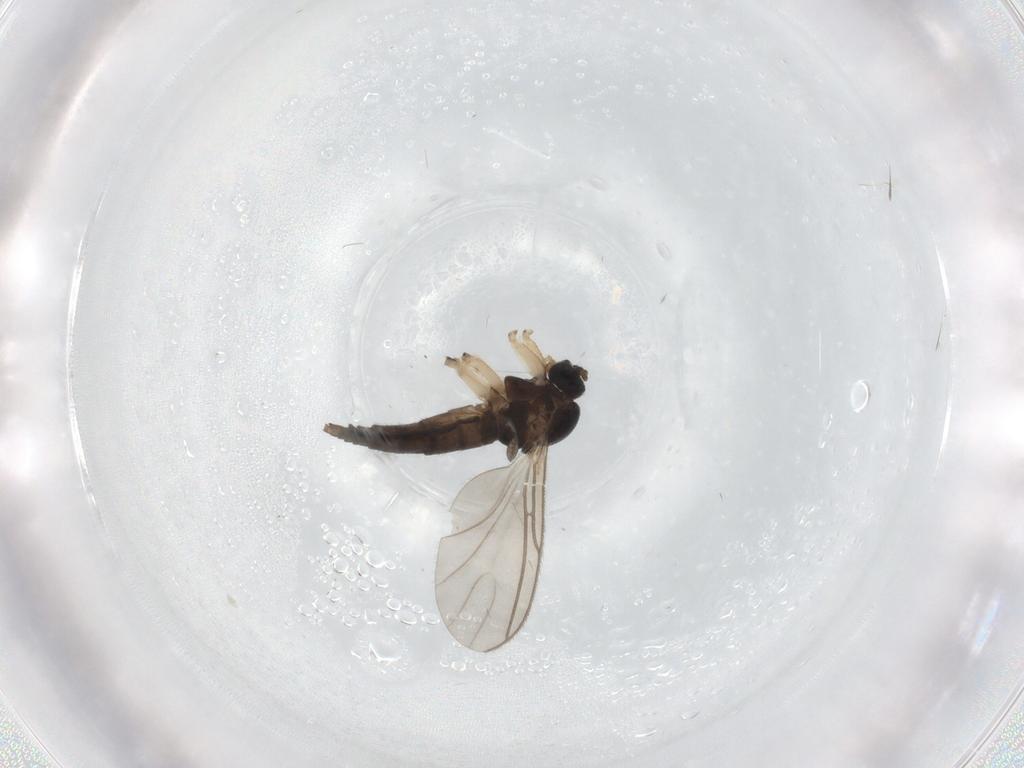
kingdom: Animalia
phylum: Arthropoda
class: Insecta
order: Diptera
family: Sciaridae
